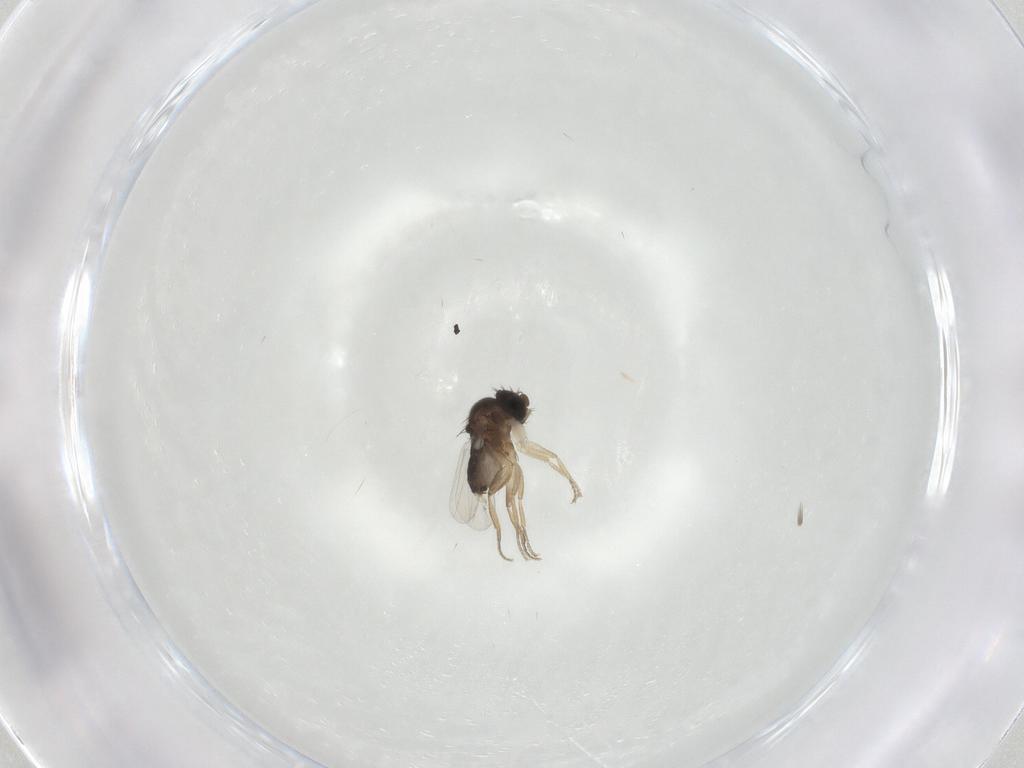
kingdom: Animalia
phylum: Arthropoda
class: Insecta
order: Diptera
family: Phoridae
